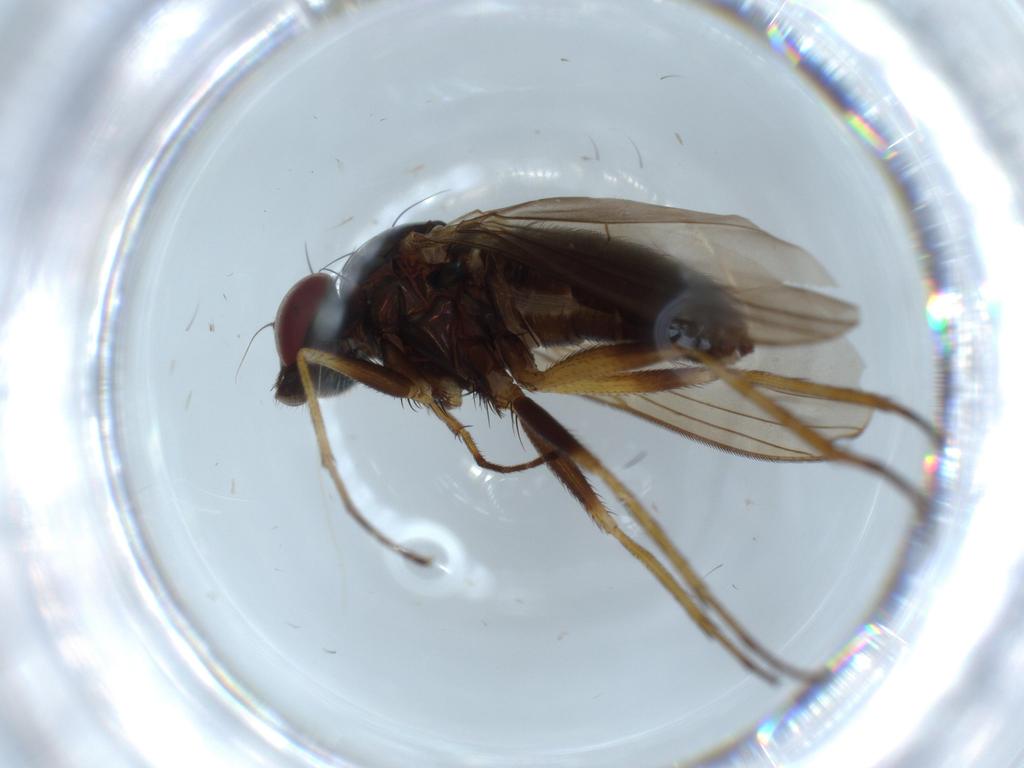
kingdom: Animalia
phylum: Arthropoda
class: Insecta
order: Diptera
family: Dolichopodidae
